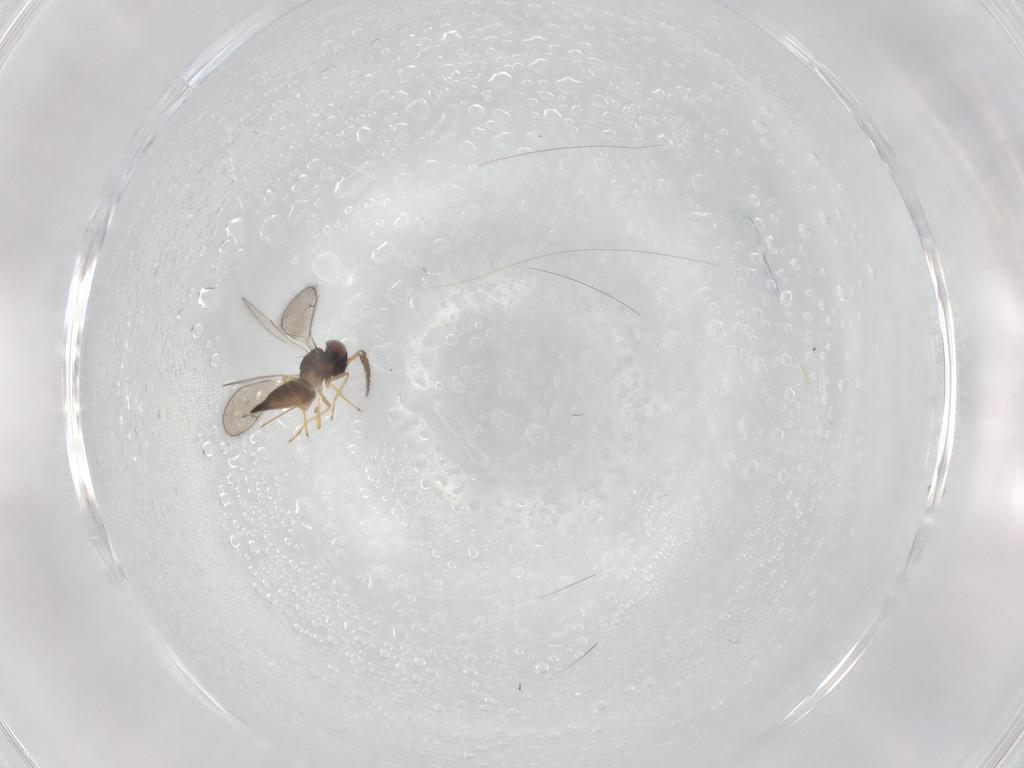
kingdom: Animalia
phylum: Arthropoda
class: Insecta
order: Hymenoptera
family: Eulophidae
